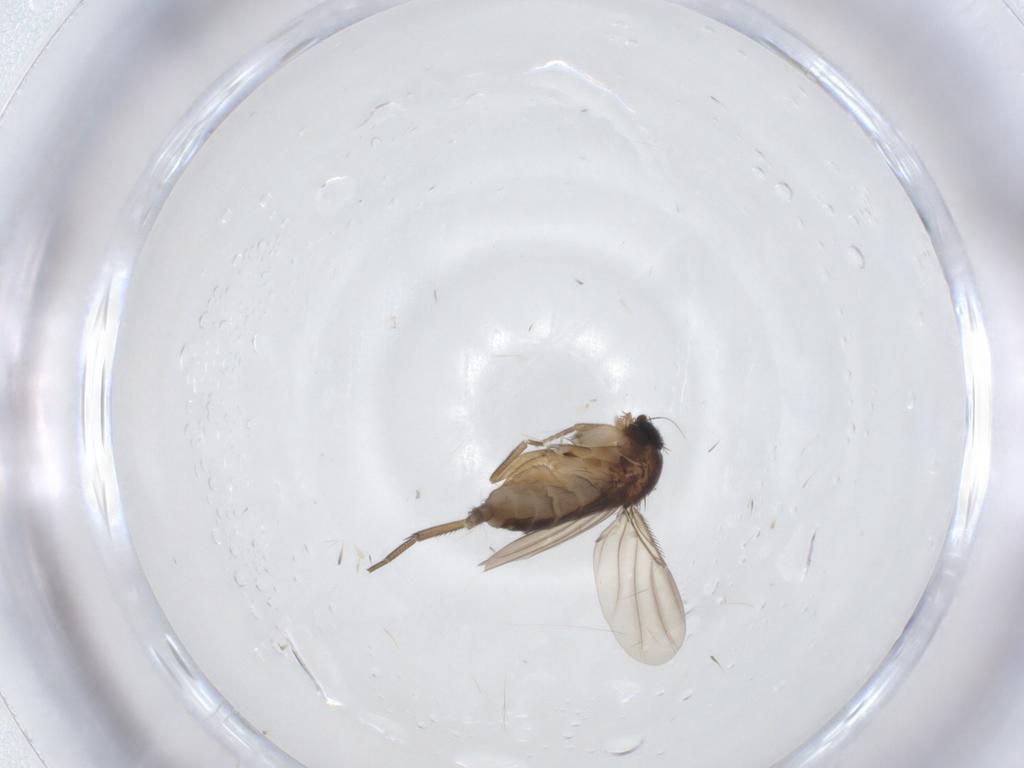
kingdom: Animalia
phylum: Arthropoda
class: Insecta
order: Diptera
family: Phoridae
